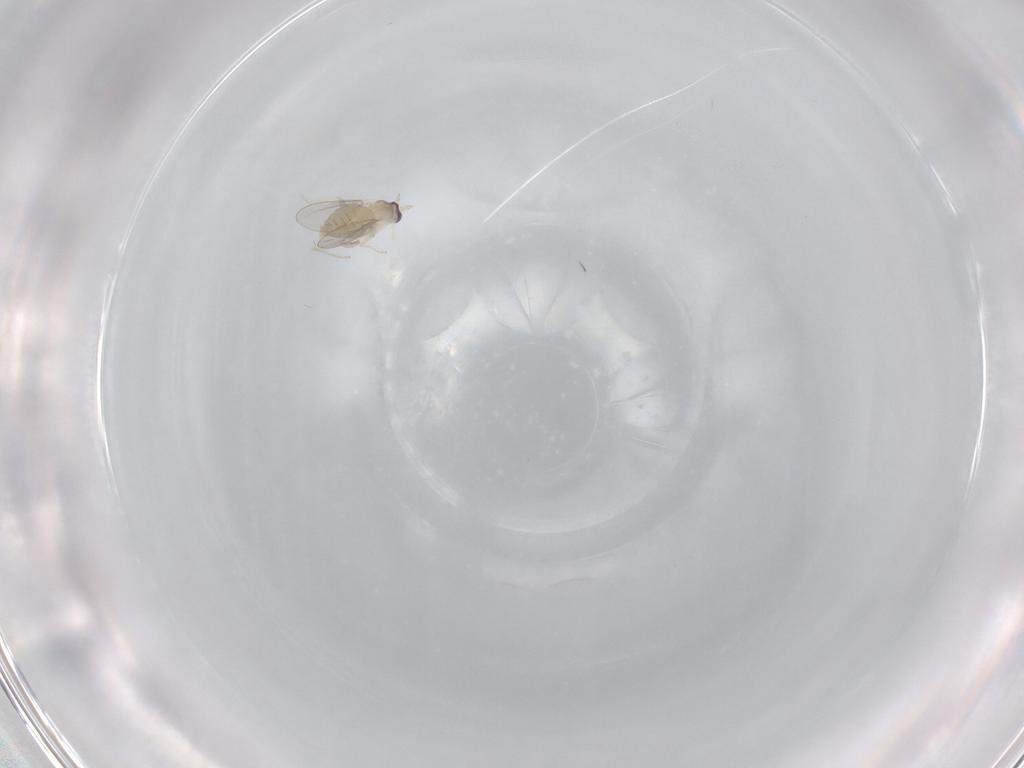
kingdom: Animalia
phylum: Arthropoda
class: Insecta
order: Diptera
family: Cecidomyiidae
